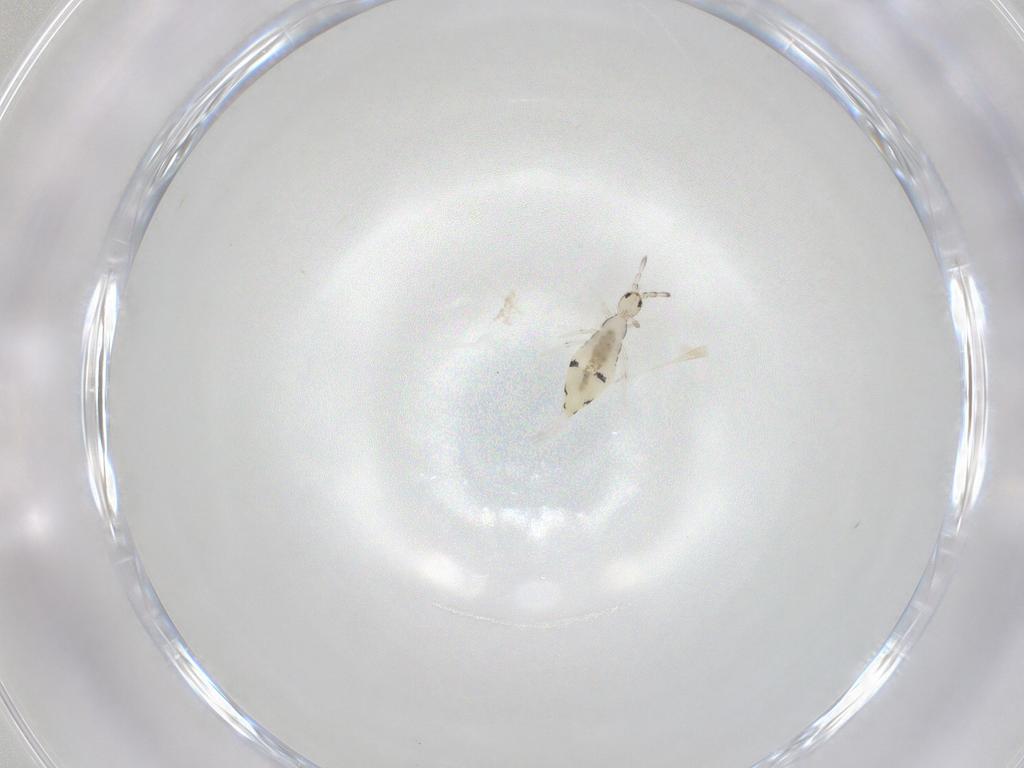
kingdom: Animalia
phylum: Arthropoda
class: Collembola
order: Entomobryomorpha
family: Entomobryidae
